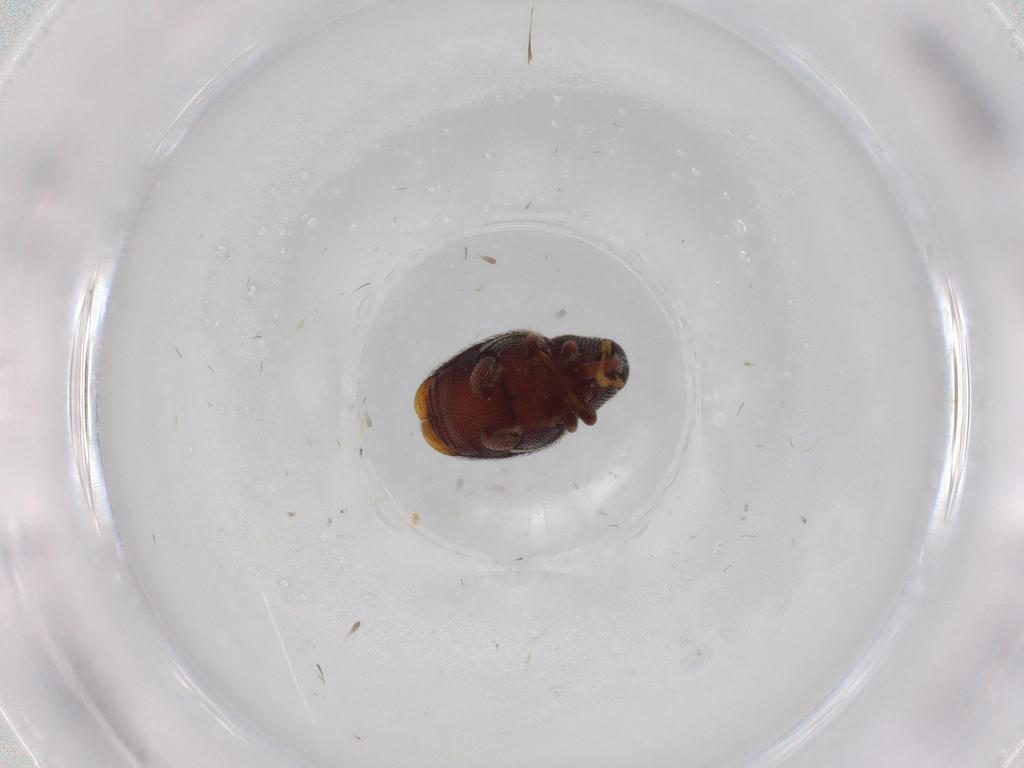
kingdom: Animalia
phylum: Arthropoda
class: Insecta
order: Coleoptera
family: Chrysomelidae
